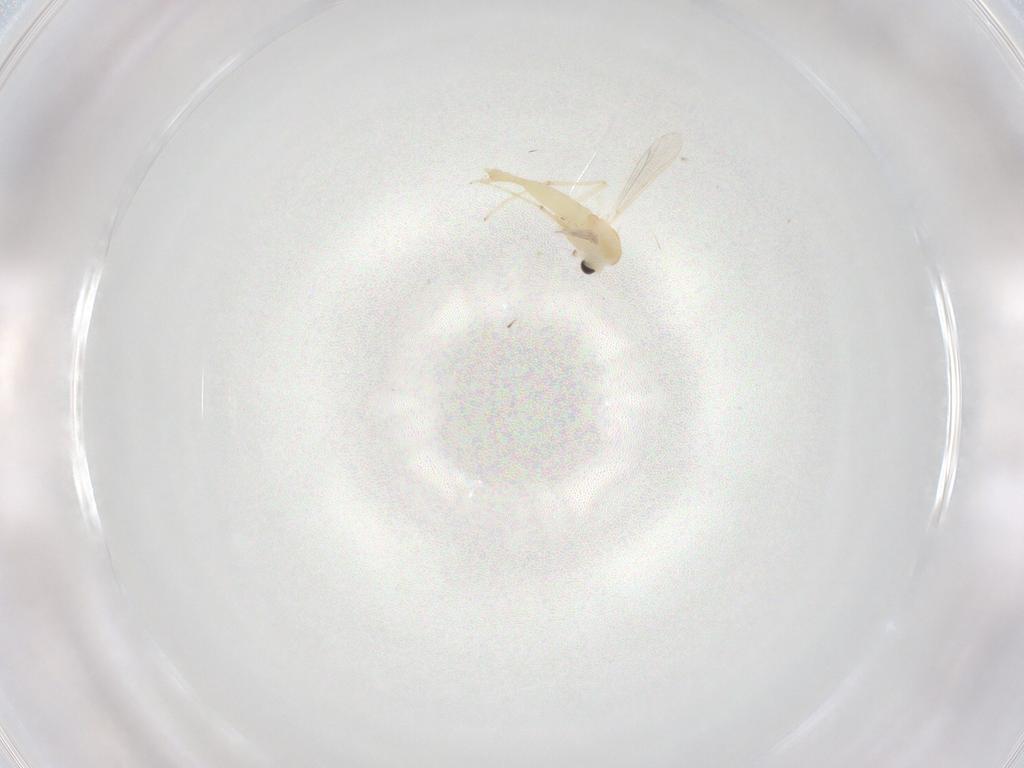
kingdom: Animalia
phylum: Arthropoda
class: Insecta
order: Diptera
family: Chironomidae
